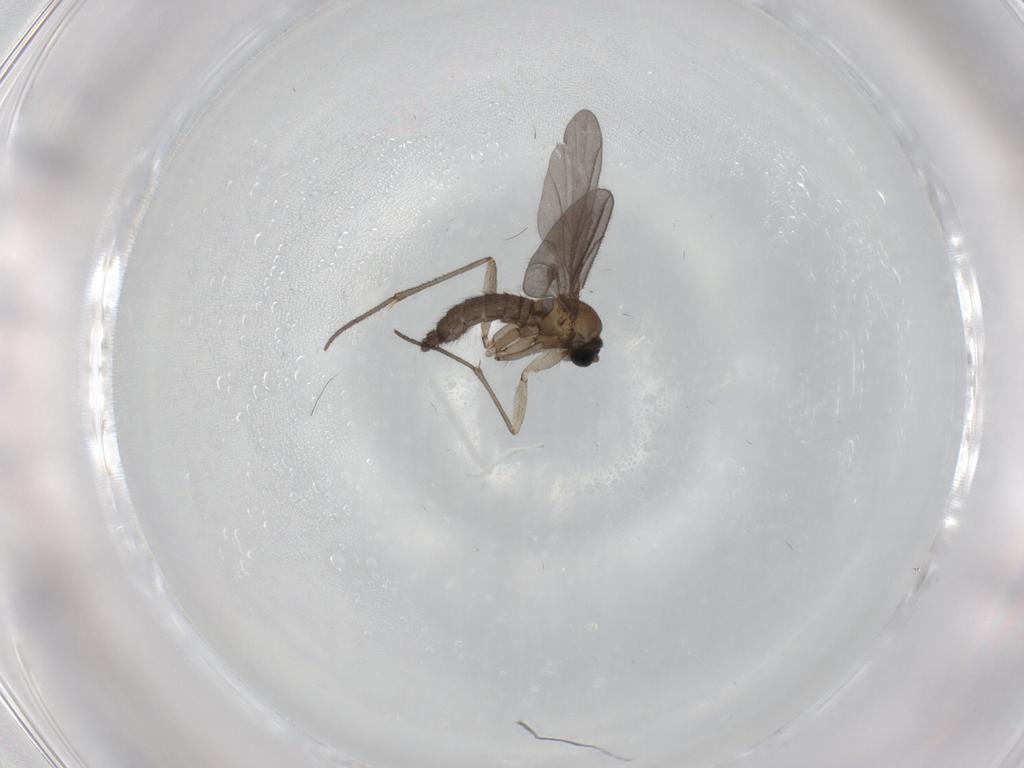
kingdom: Animalia
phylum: Arthropoda
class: Insecta
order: Diptera
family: Sciaridae
